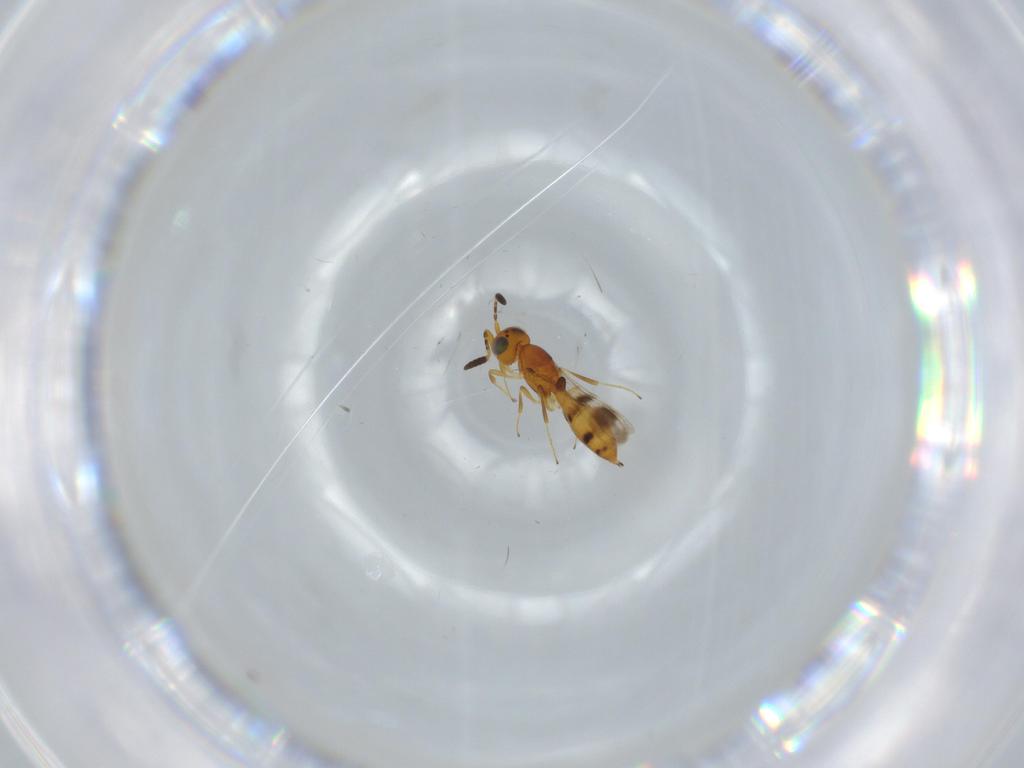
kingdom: Animalia
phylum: Arthropoda
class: Insecta
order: Hymenoptera
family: Scelionidae
